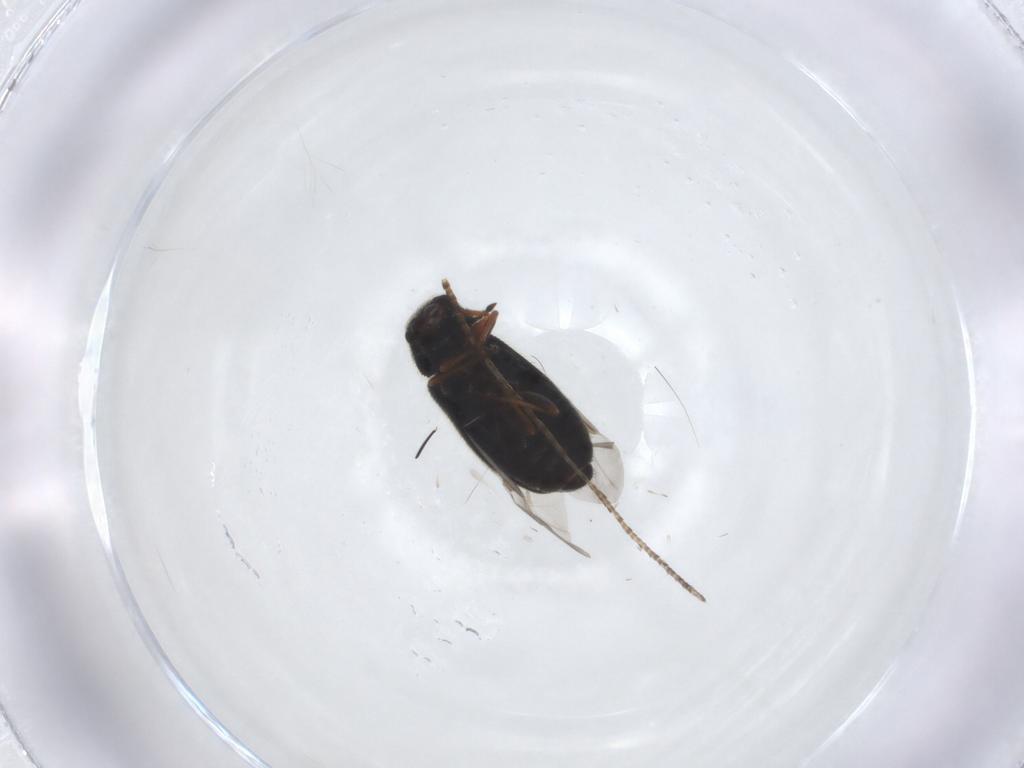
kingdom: Animalia
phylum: Arthropoda
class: Insecta
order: Coleoptera
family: Melyridae
